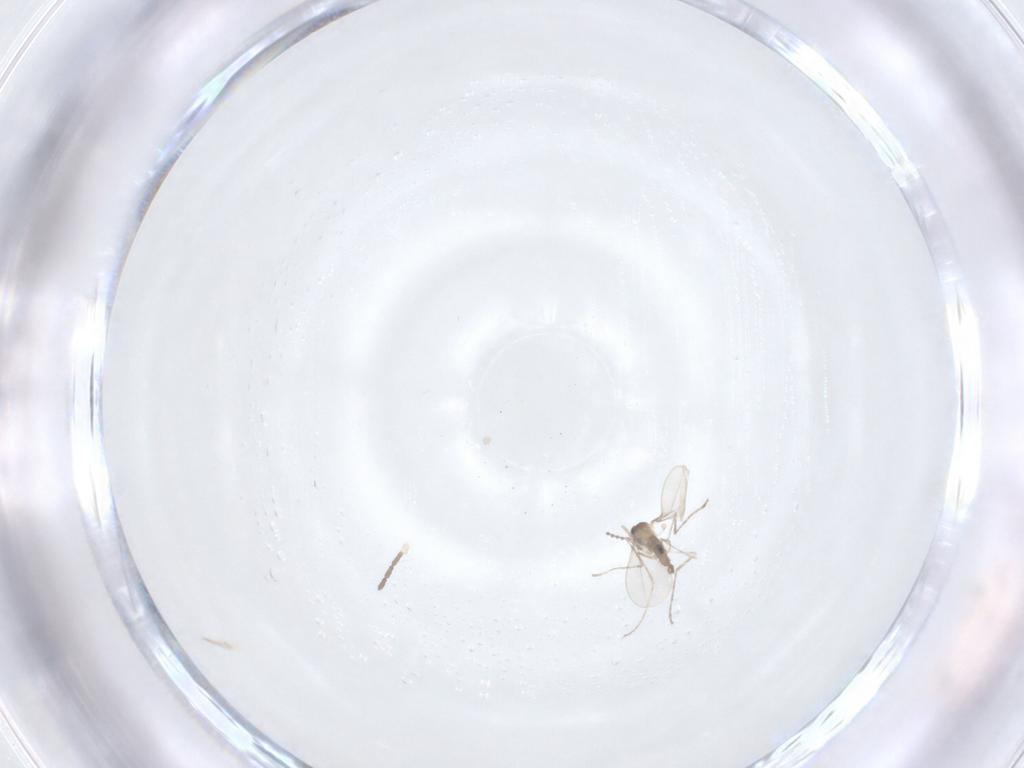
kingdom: Animalia
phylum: Arthropoda
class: Insecta
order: Diptera
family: Cecidomyiidae
